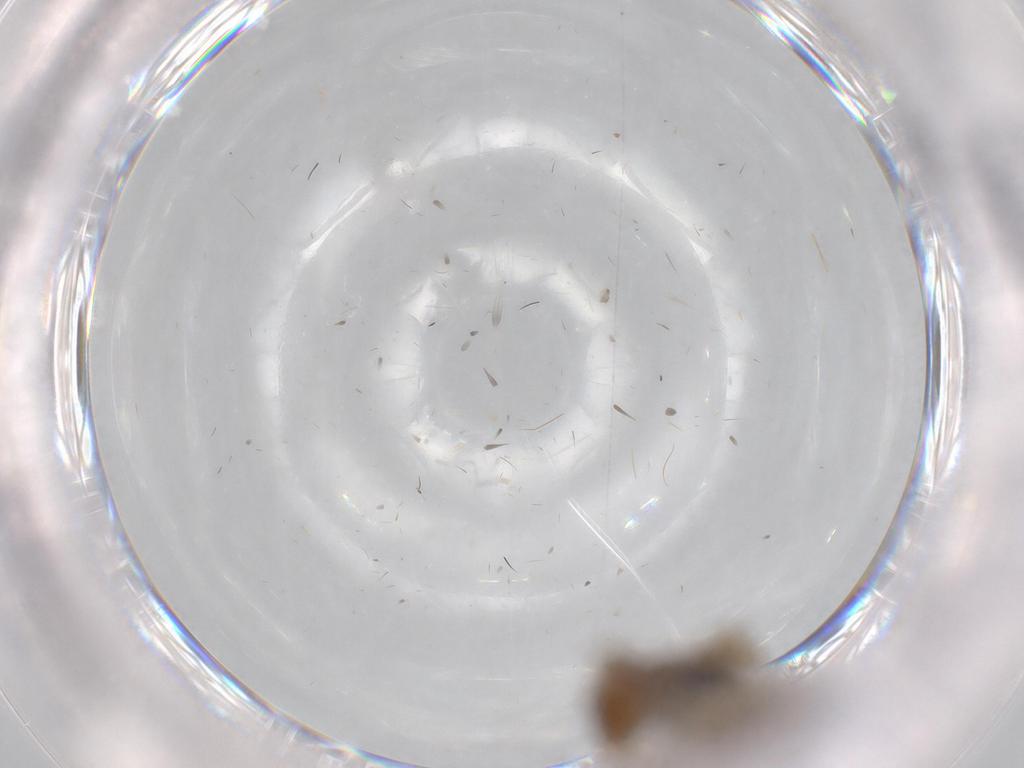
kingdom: Animalia
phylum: Arthropoda
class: Insecta
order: Diptera
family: Cecidomyiidae
